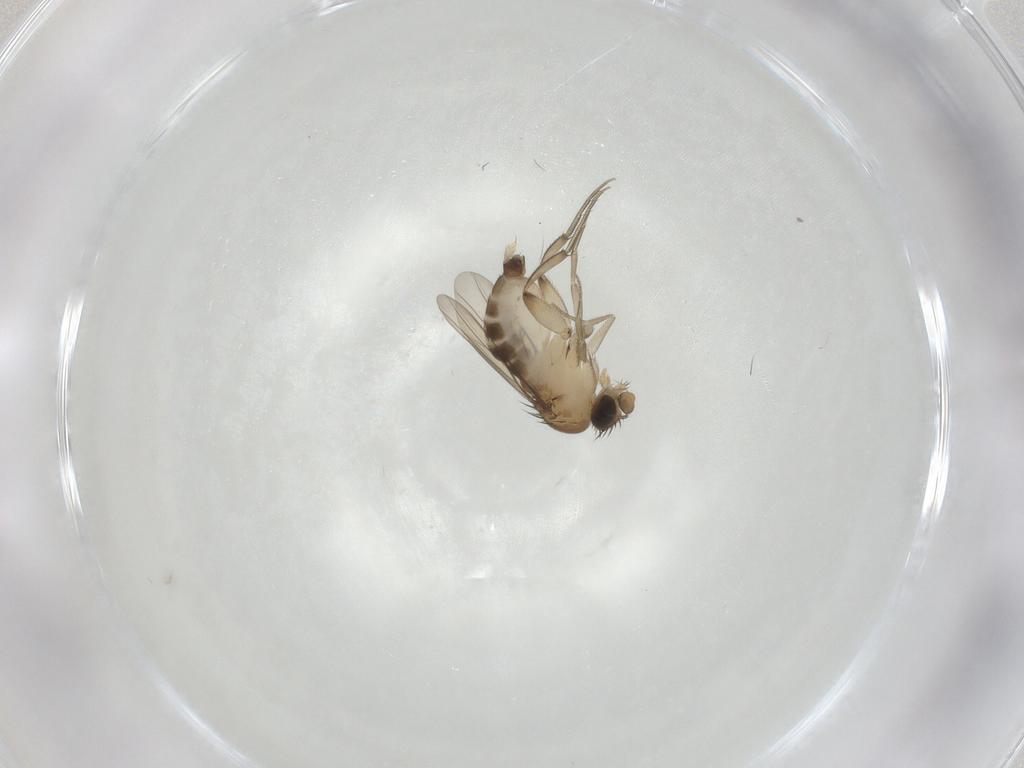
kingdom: Animalia
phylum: Arthropoda
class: Insecta
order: Diptera
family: Phoridae
